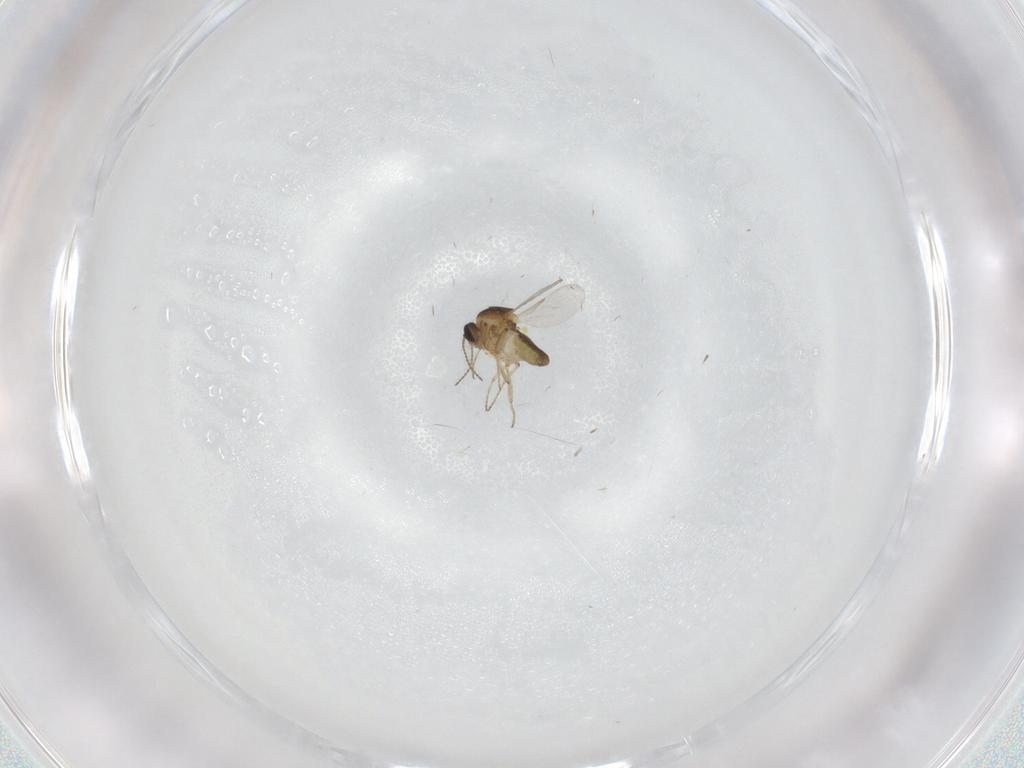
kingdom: Animalia
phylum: Arthropoda
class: Insecta
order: Diptera
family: Ceratopogonidae
